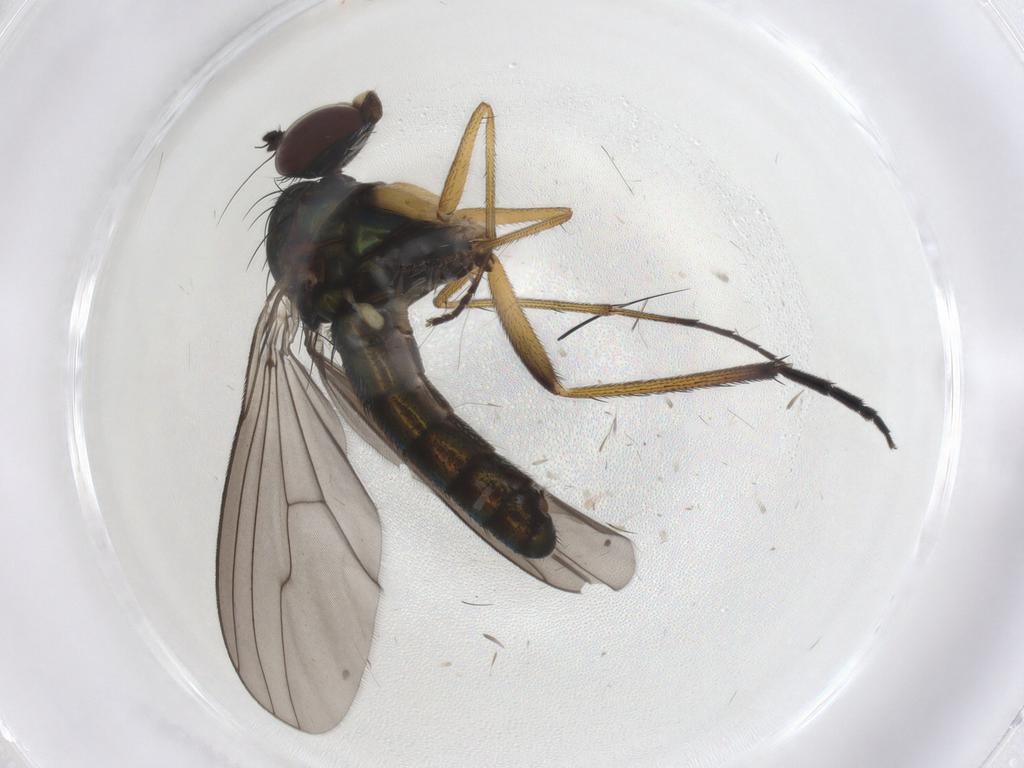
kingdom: Animalia
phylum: Arthropoda
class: Insecta
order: Diptera
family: Dolichopodidae
